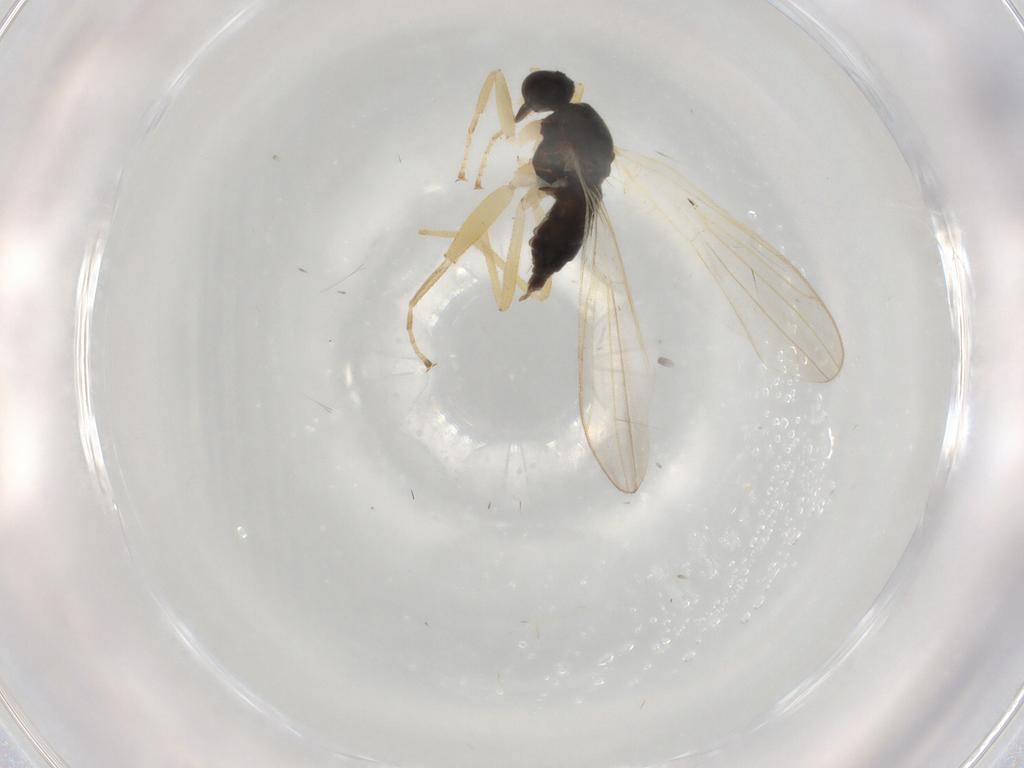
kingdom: Animalia
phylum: Arthropoda
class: Insecta
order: Diptera
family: Hybotidae
